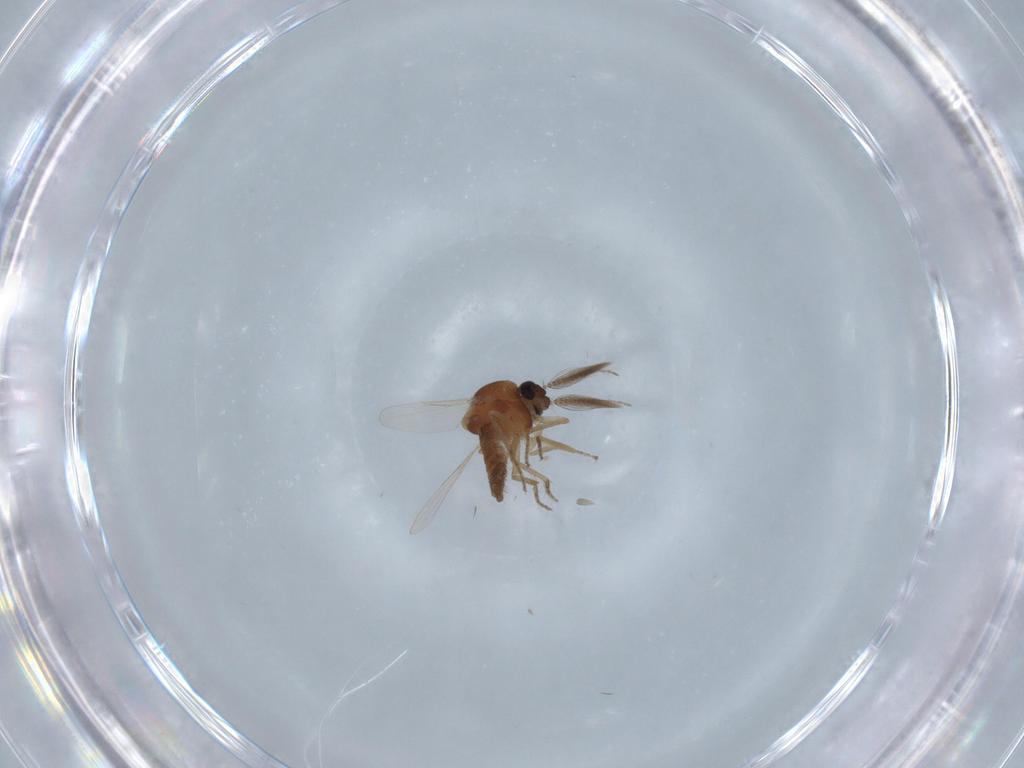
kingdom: Animalia
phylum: Arthropoda
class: Insecta
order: Diptera
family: Ceratopogonidae
